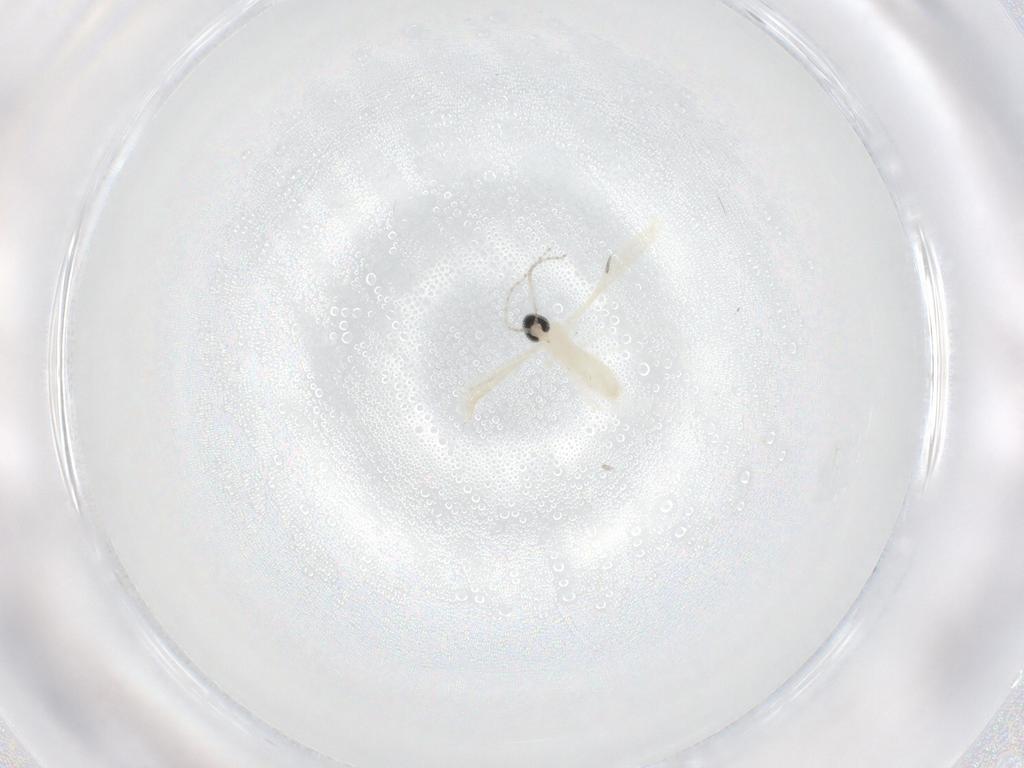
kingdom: Animalia
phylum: Arthropoda
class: Insecta
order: Diptera
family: Cecidomyiidae
